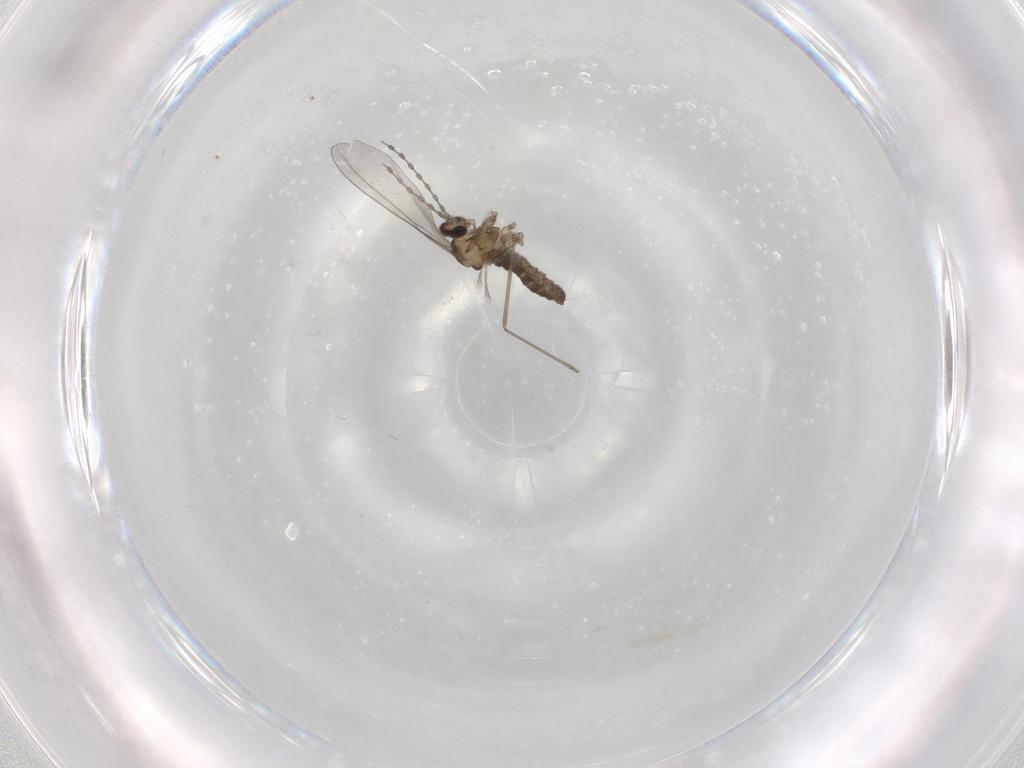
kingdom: Animalia
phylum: Arthropoda
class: Insecta
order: Diptera
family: Cecidomyiidae
